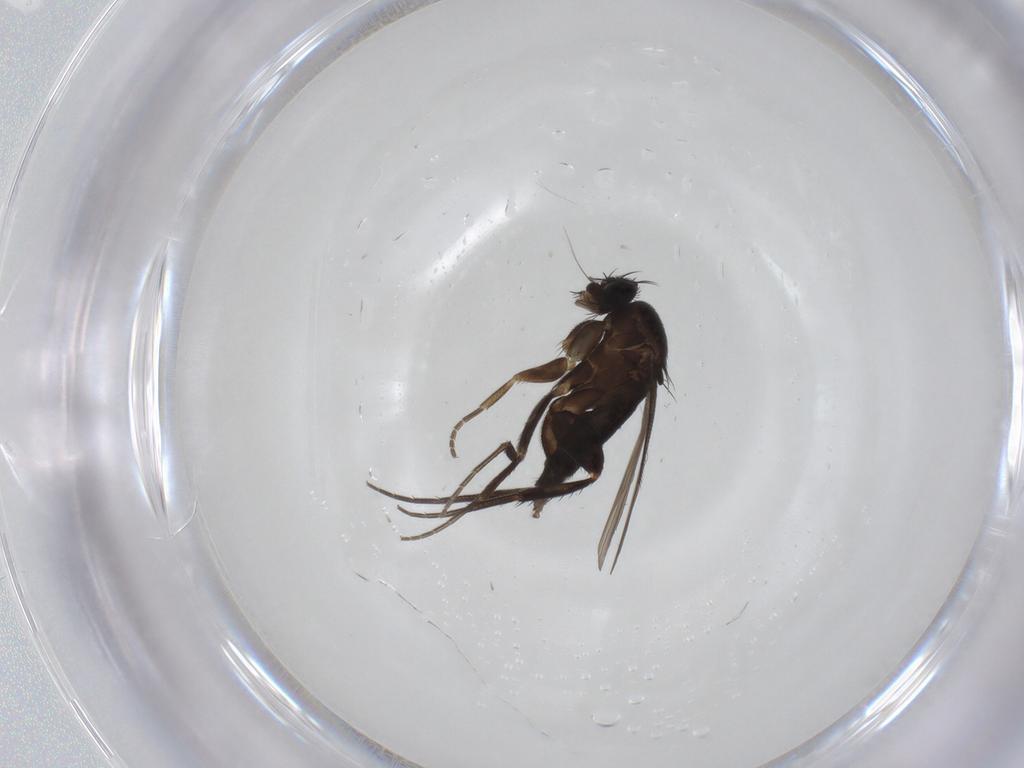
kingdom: Animalia
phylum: Arthropoda
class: Insecta
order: Diptera
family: Phoridae
